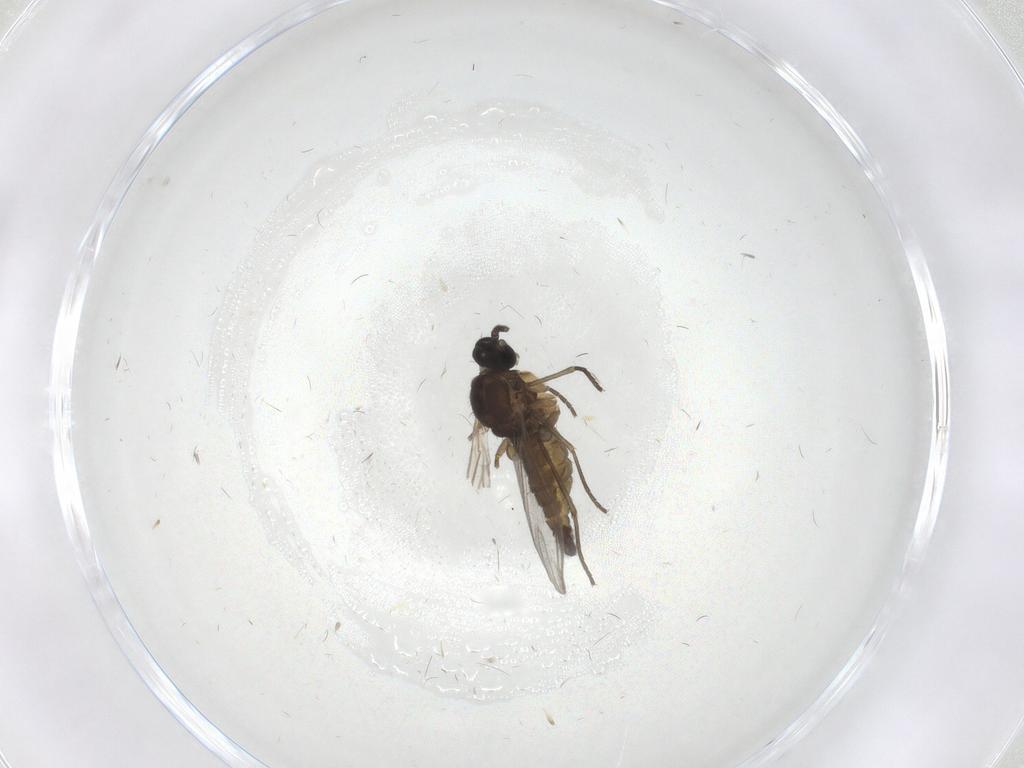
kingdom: Animalia
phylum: Arthropoda
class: Insecta
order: Diptera
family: Sciaridae
